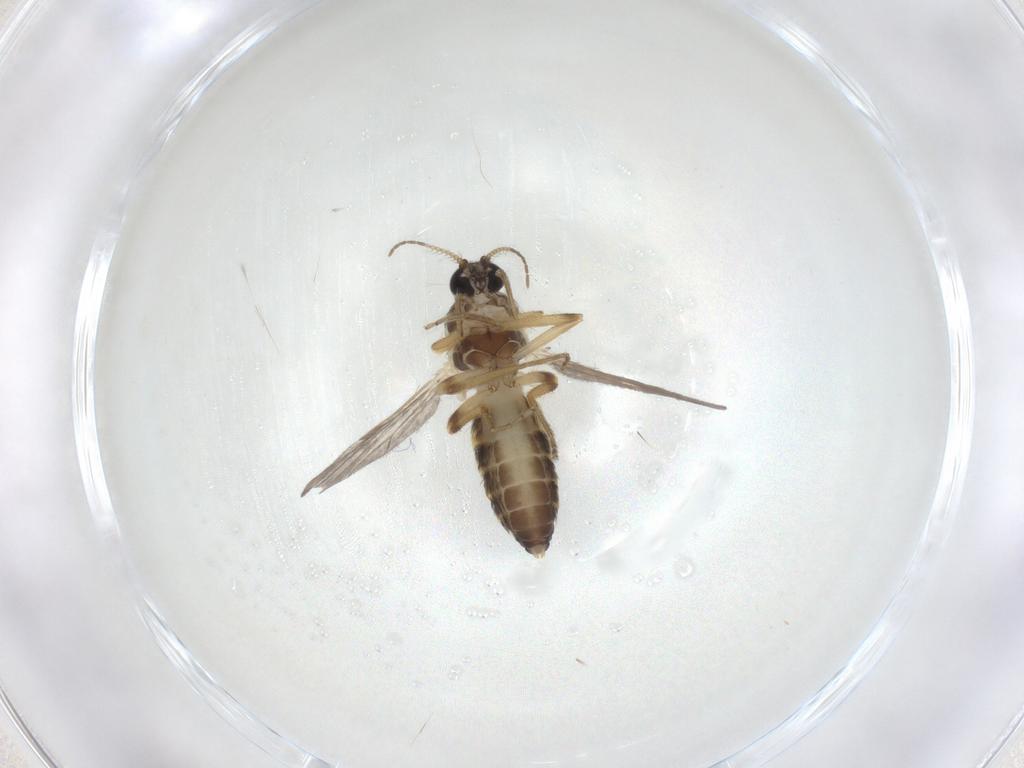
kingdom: Animalia
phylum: Arthropoda
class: Insecta
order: Diptera
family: Ceratopogonidae
